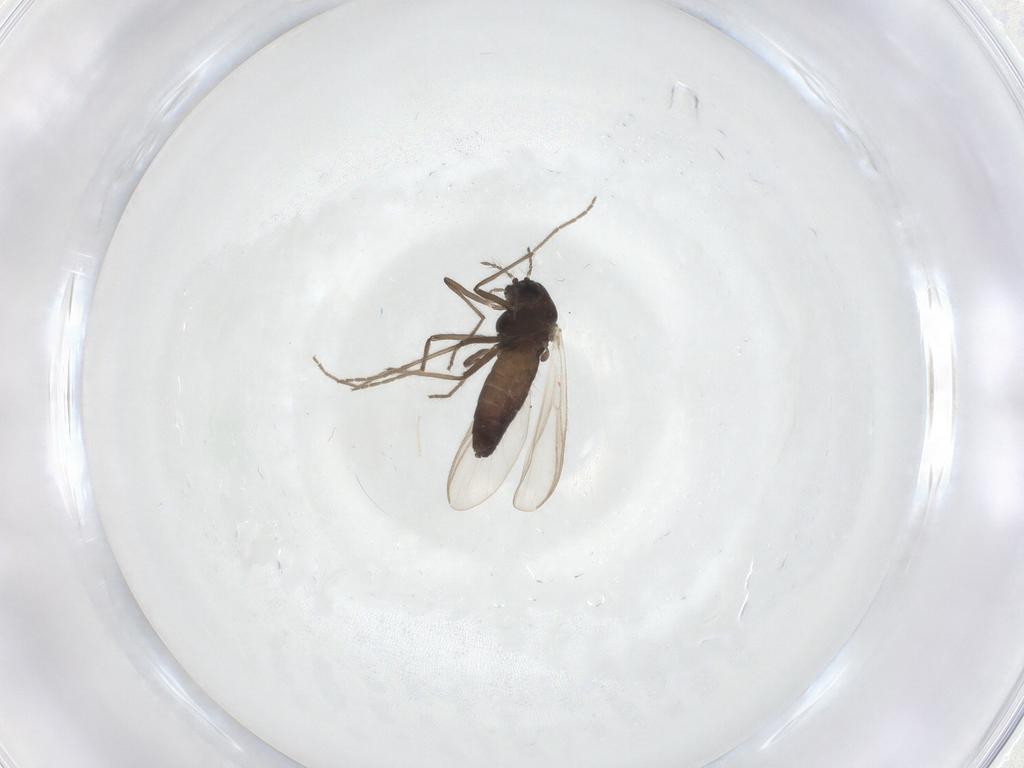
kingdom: Animalia
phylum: Arthropoda
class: Insecta
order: Diptera
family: Chironomidae
